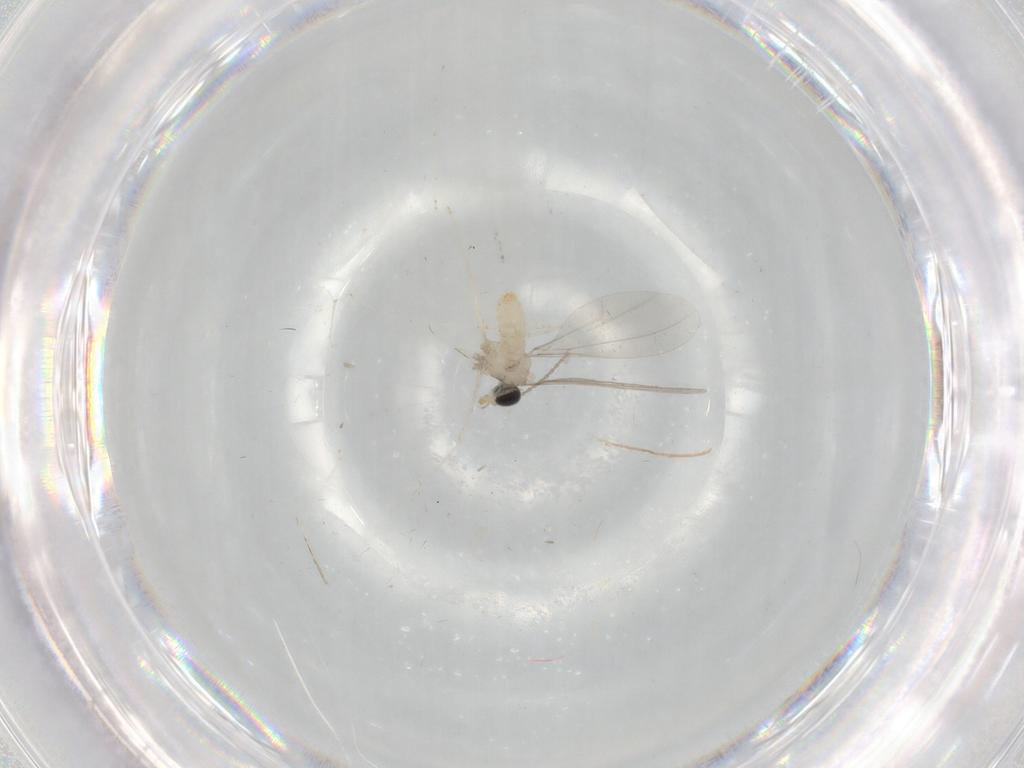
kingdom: Animalia
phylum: Arthropoda
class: Insecta
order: Diptera
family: Cecidomyiidae
